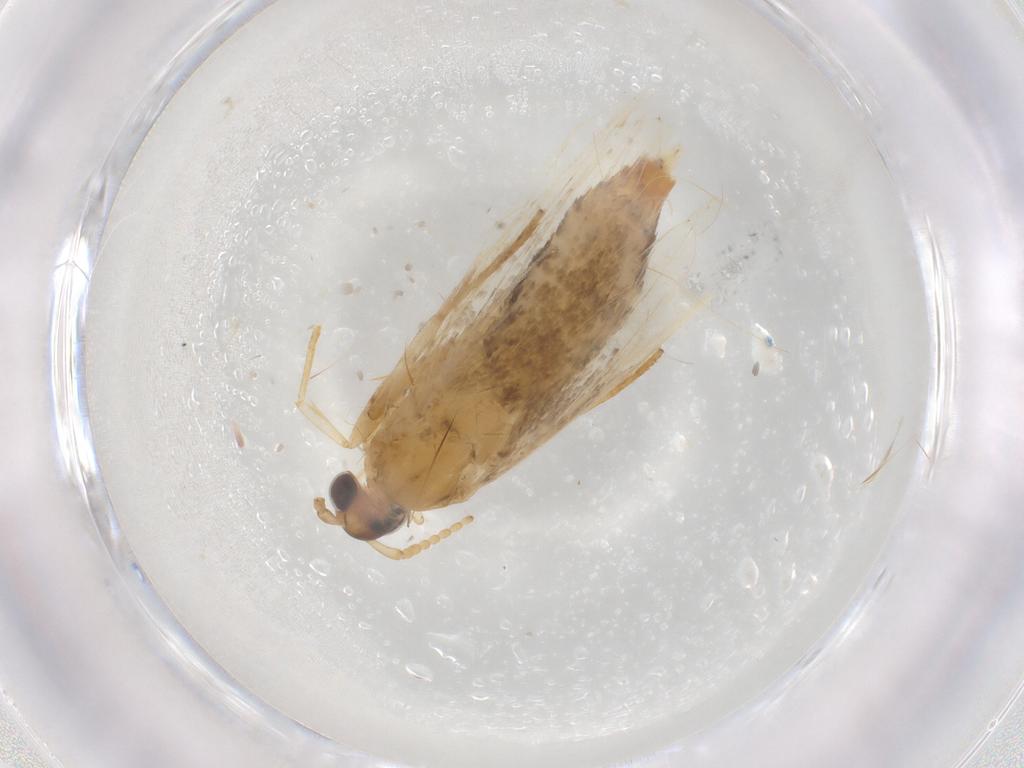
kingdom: Animalia
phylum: Arthropoda
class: Insecta
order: Lepidoptera
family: Lecithoceridae
